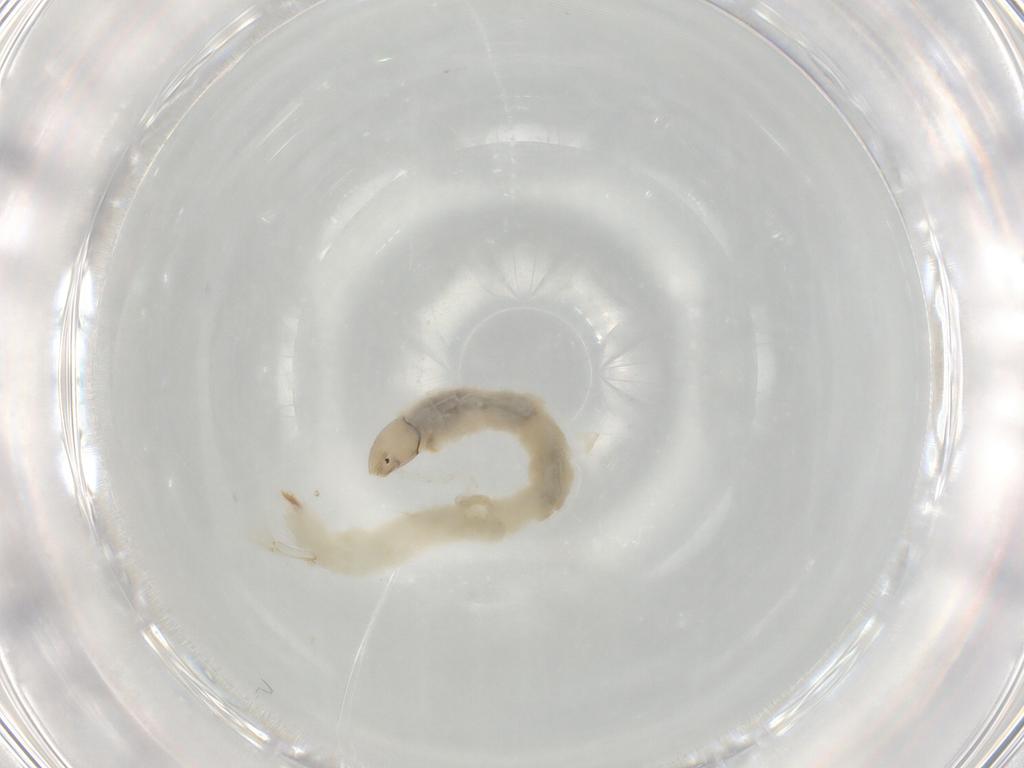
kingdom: Animalia
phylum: Arthropoda
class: Insecta
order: Diptera
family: Chironomidae
